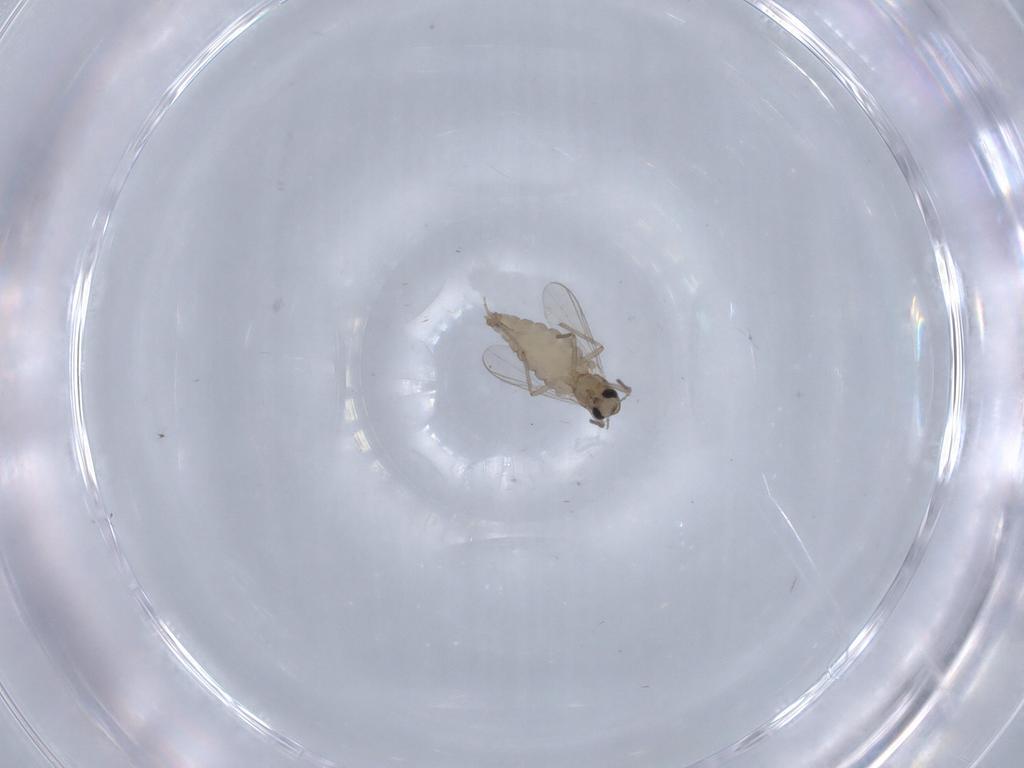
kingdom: Animalia
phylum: Arthropoda
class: Insecta
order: Diptera
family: Chironomidae
